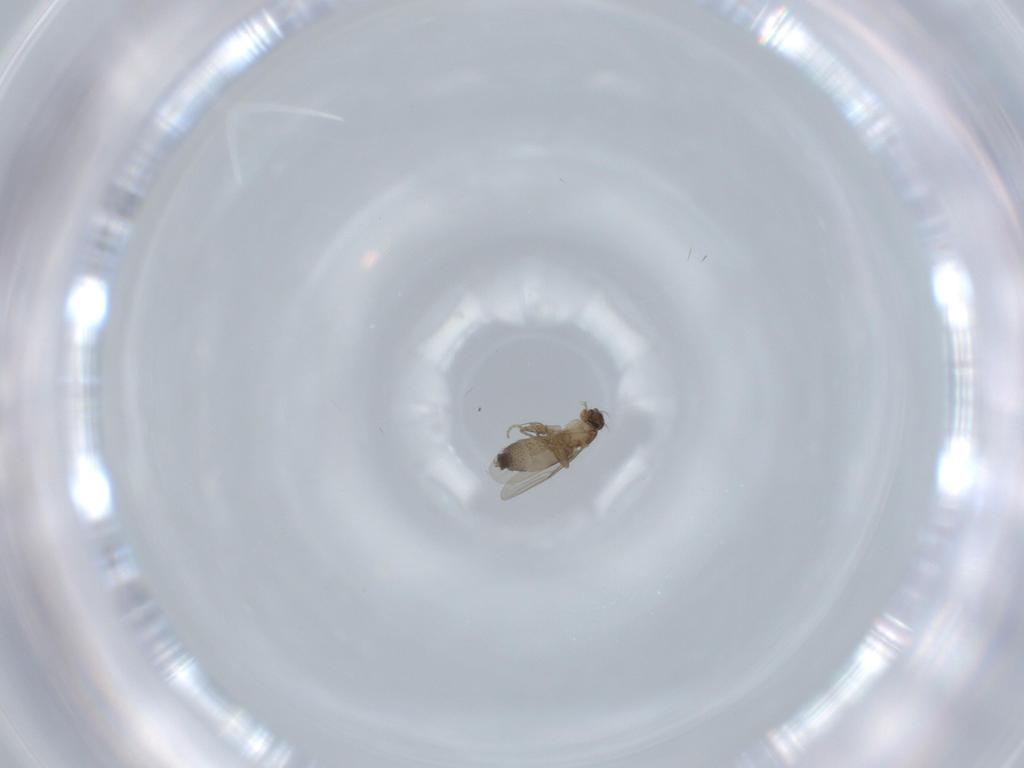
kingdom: Animalia
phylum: Arthropoda
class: Insecta
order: Diptera
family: Phoridae
